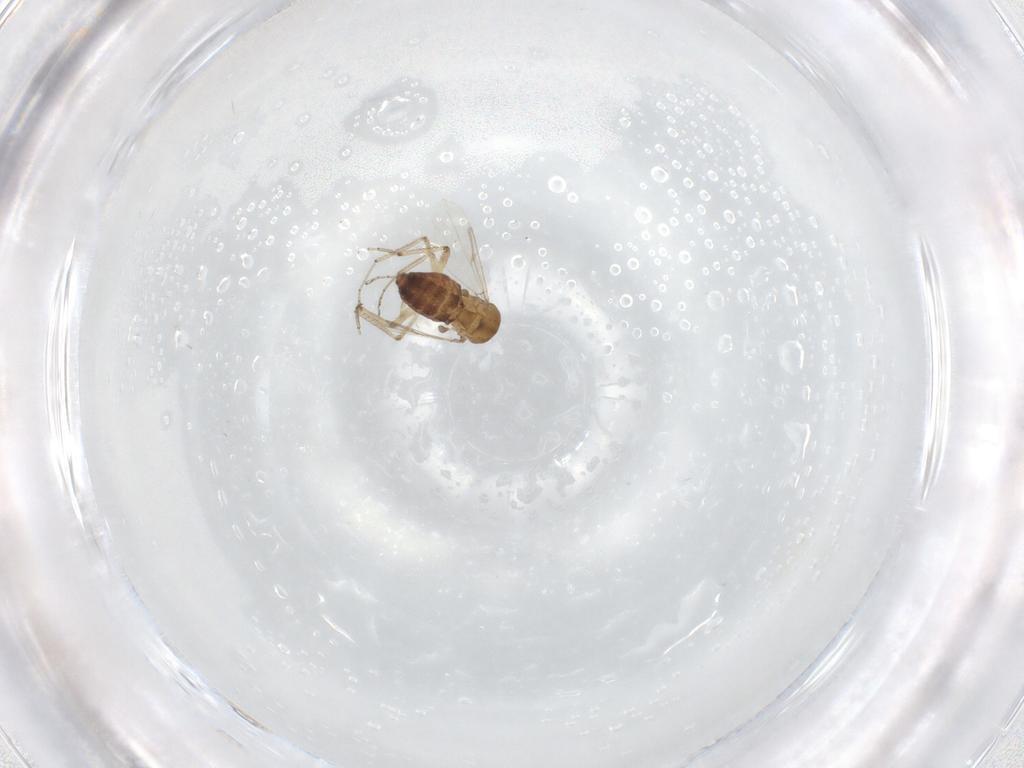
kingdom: Animalia
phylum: Arthropoda
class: Insecta
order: Diptera
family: Ceratopogonidae
